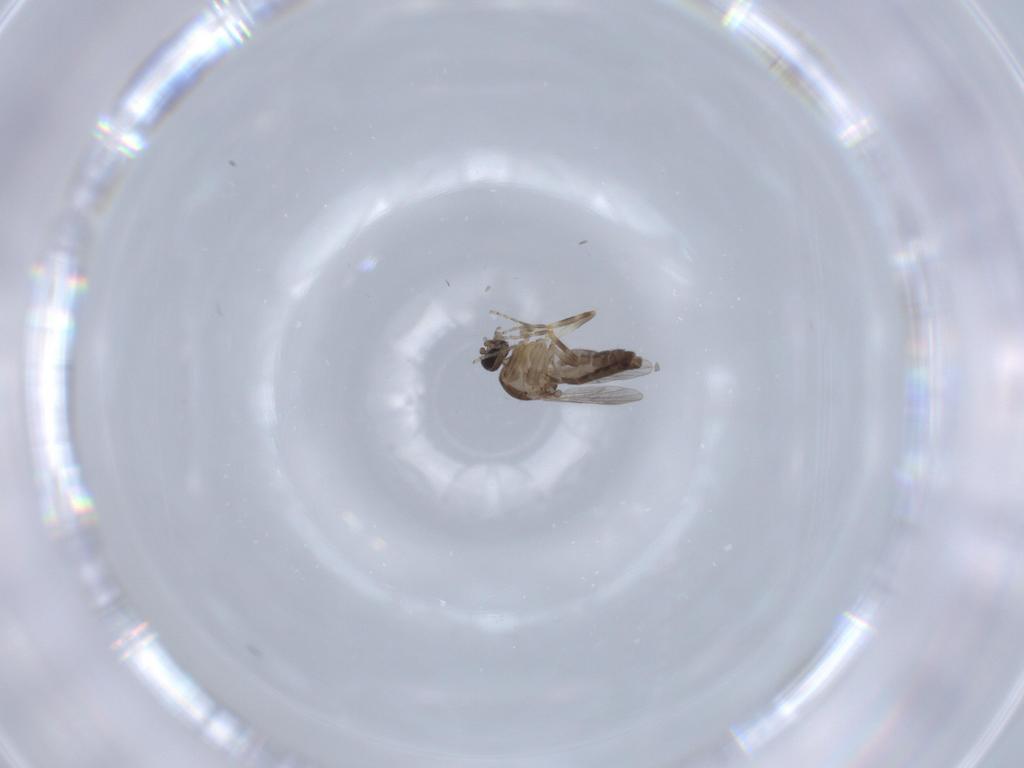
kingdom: Animalia
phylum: Arthropoda
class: Insecta
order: Diptera
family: Ceratopogonidae
